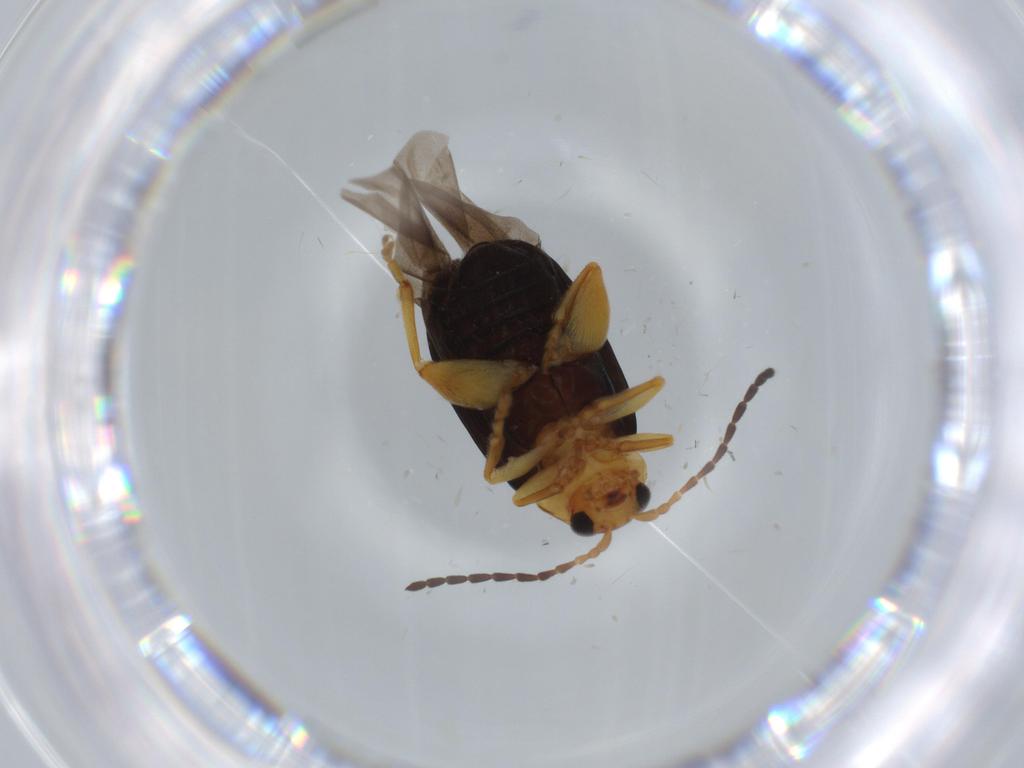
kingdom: Animalia
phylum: Arthropoda
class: Insecta
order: Coleoptera
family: Chrysomelidae
